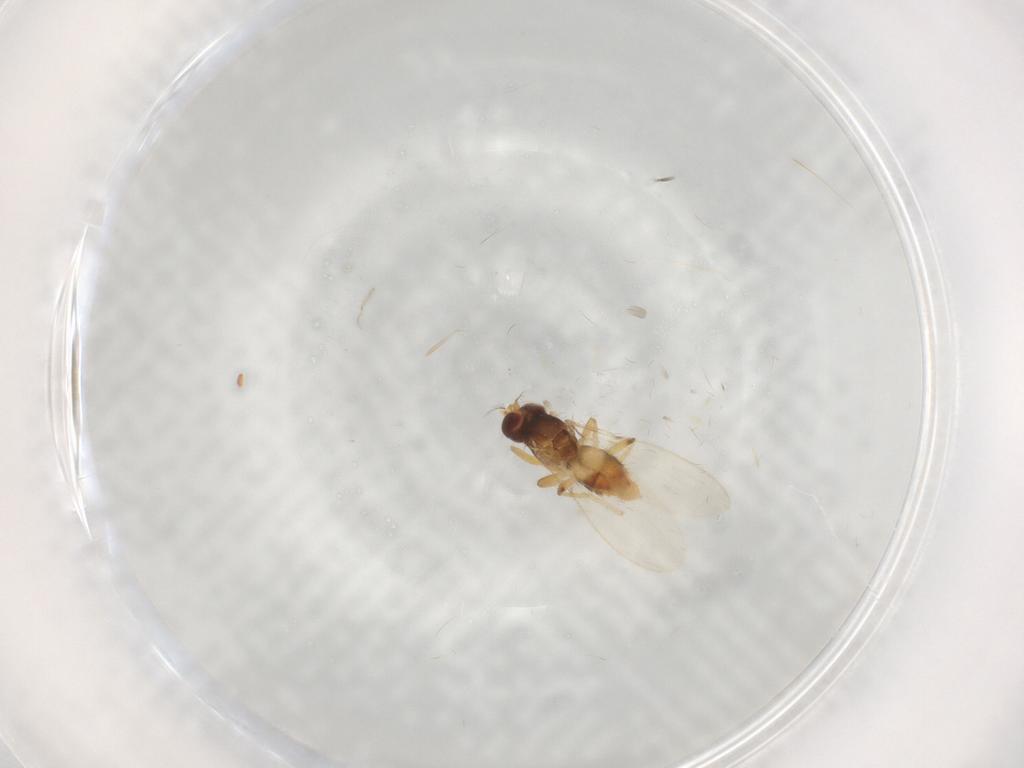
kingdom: Animalia
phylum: Arthropoda
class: Insecta
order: Diptera
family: Periscelididae
